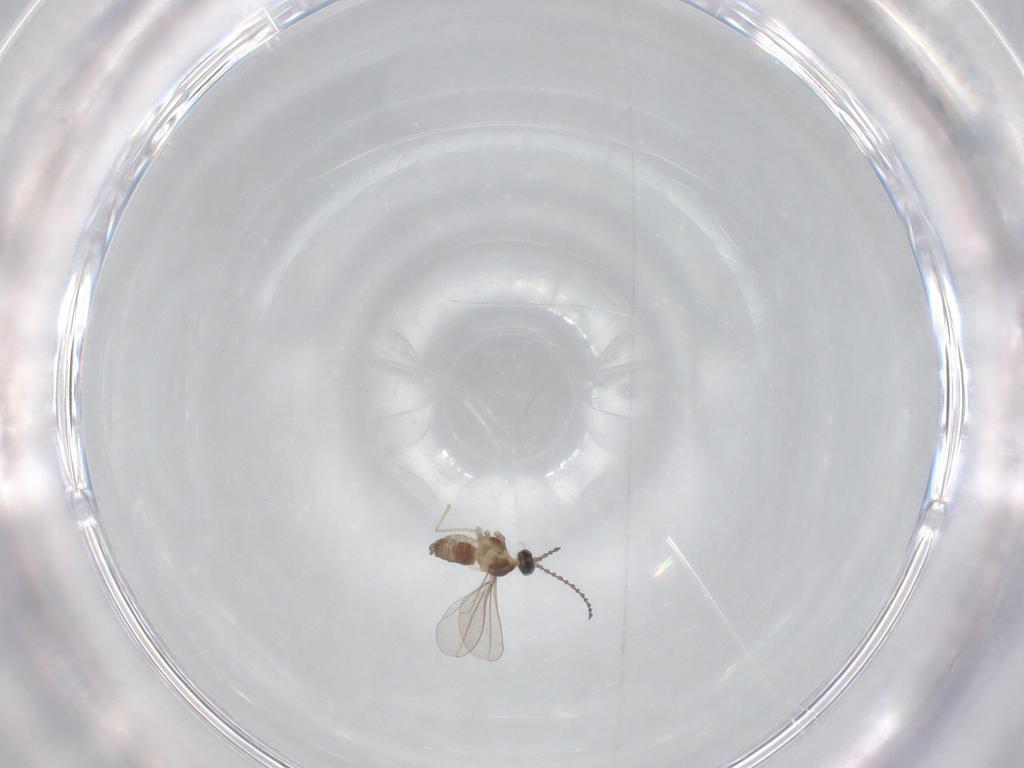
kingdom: Animalia
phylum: Arthropoda
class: Insecta
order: Diptera
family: Cecidomyiidae
